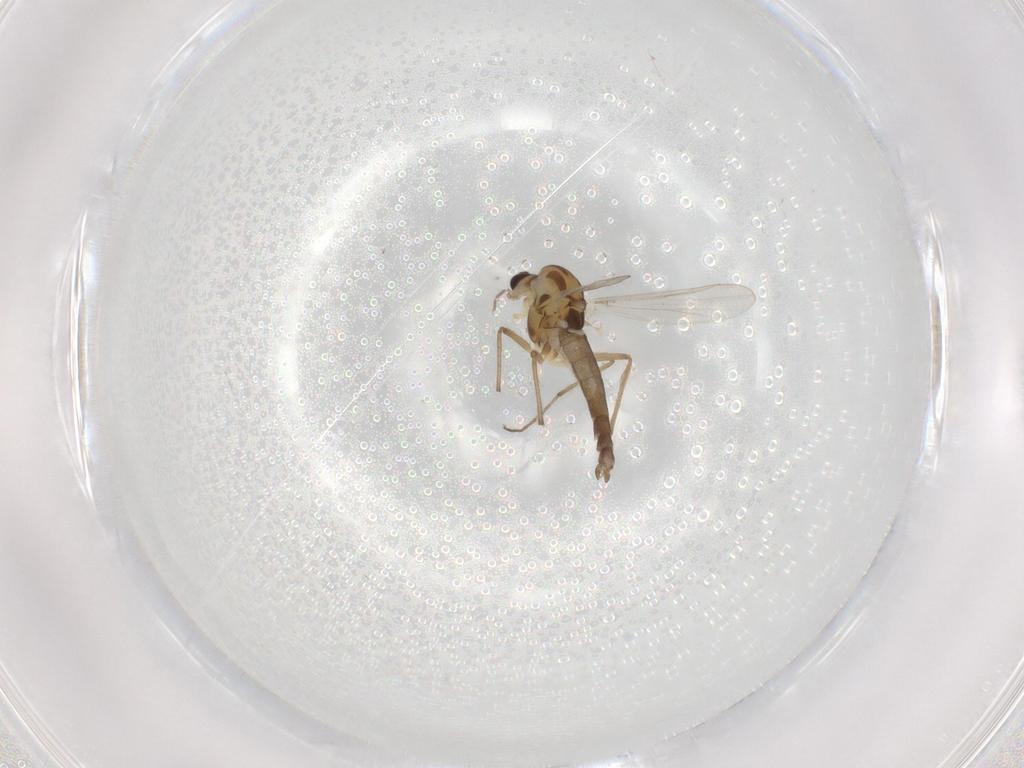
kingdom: Animalia
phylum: Arthropoda
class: Insecta
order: Diptera
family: Chironomidae
